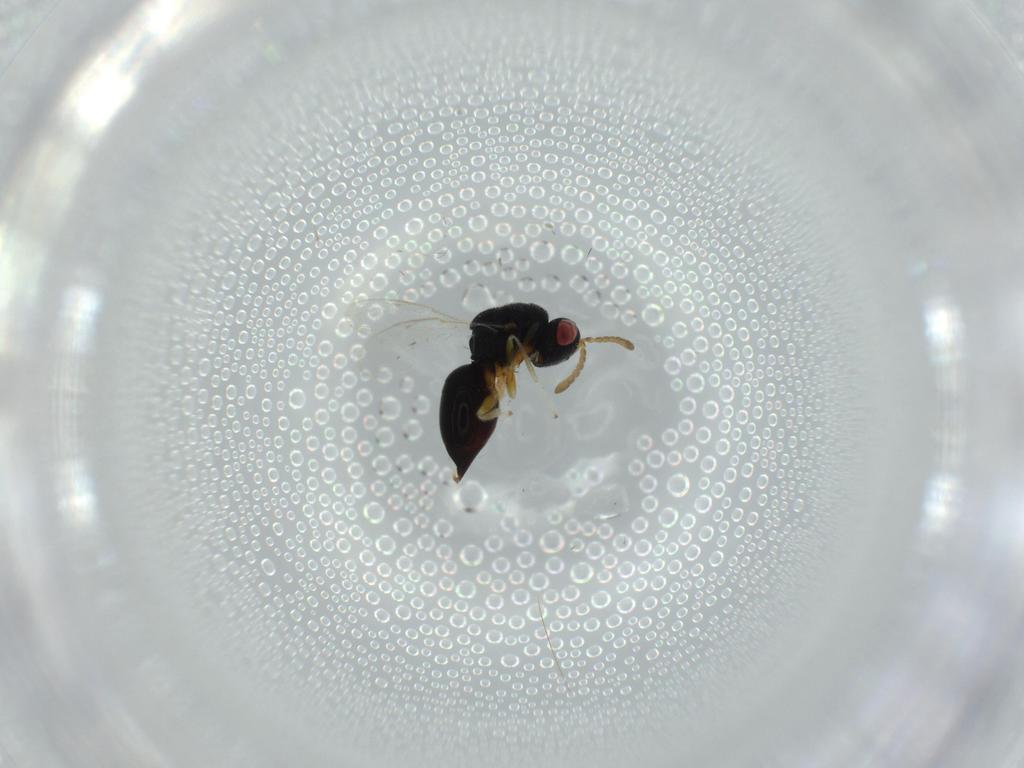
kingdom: Animalia
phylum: Arthropoda
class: Insecta
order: Hymenoptera
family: Eurytomidae
